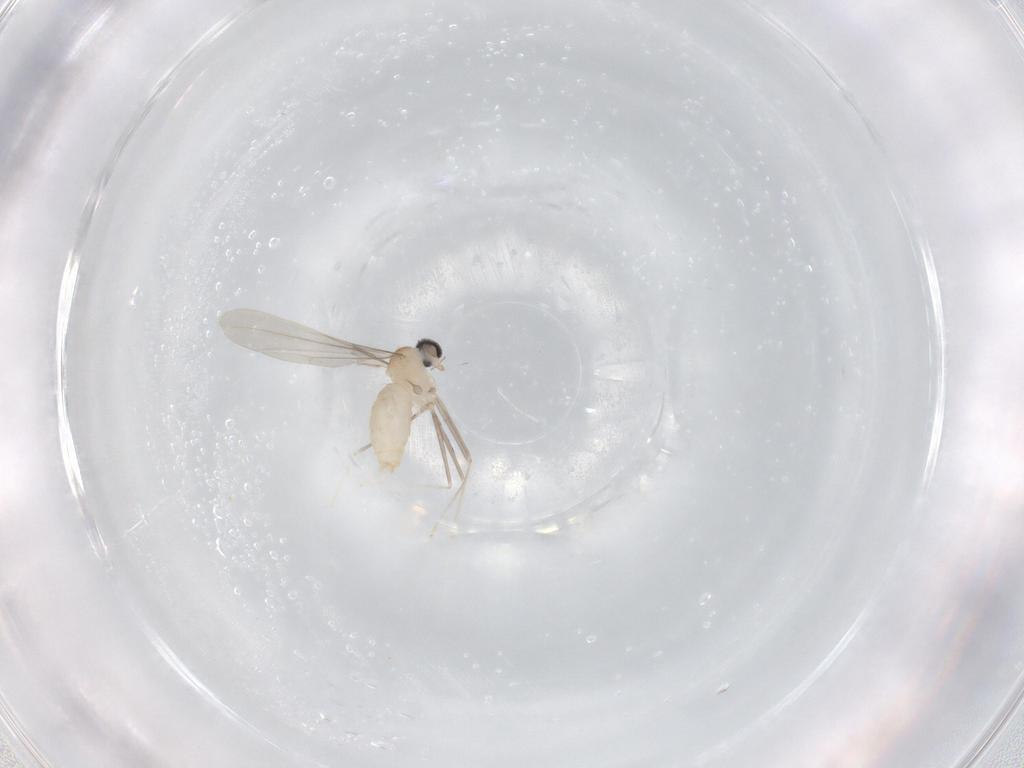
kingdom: Animalia
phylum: Arthropoda
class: Insecta
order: Diptera
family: Cecidomyiidae
